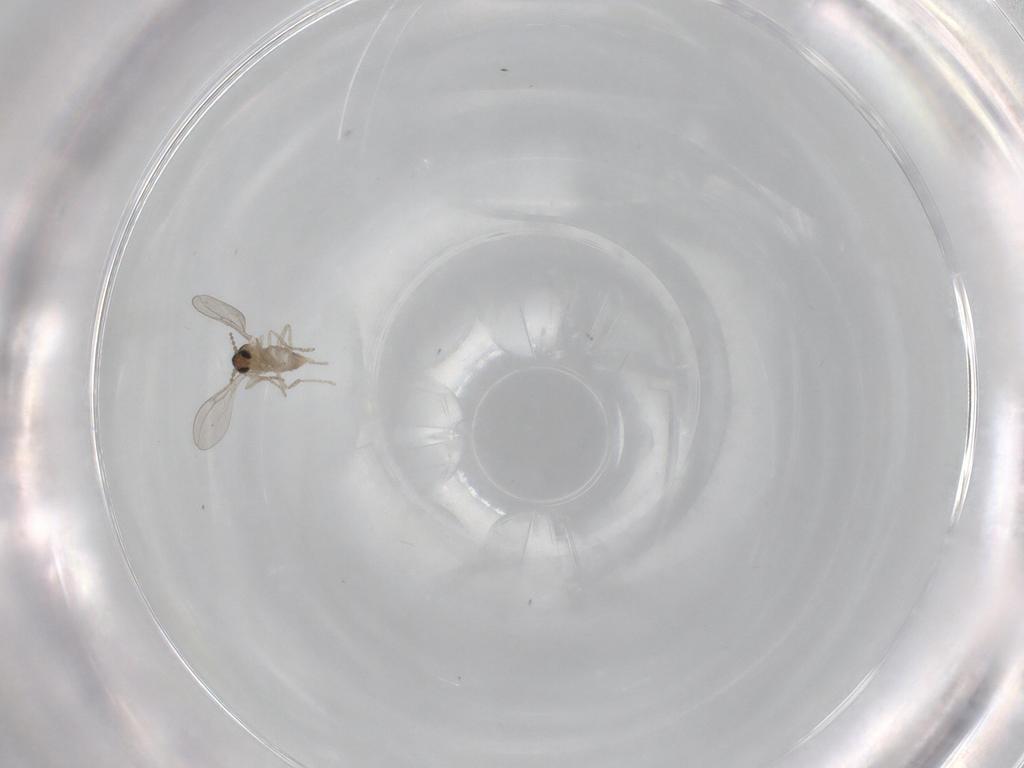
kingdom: Animalia
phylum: Arthropoda
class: Insecta
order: Diptera
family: Cecidomyiidae
